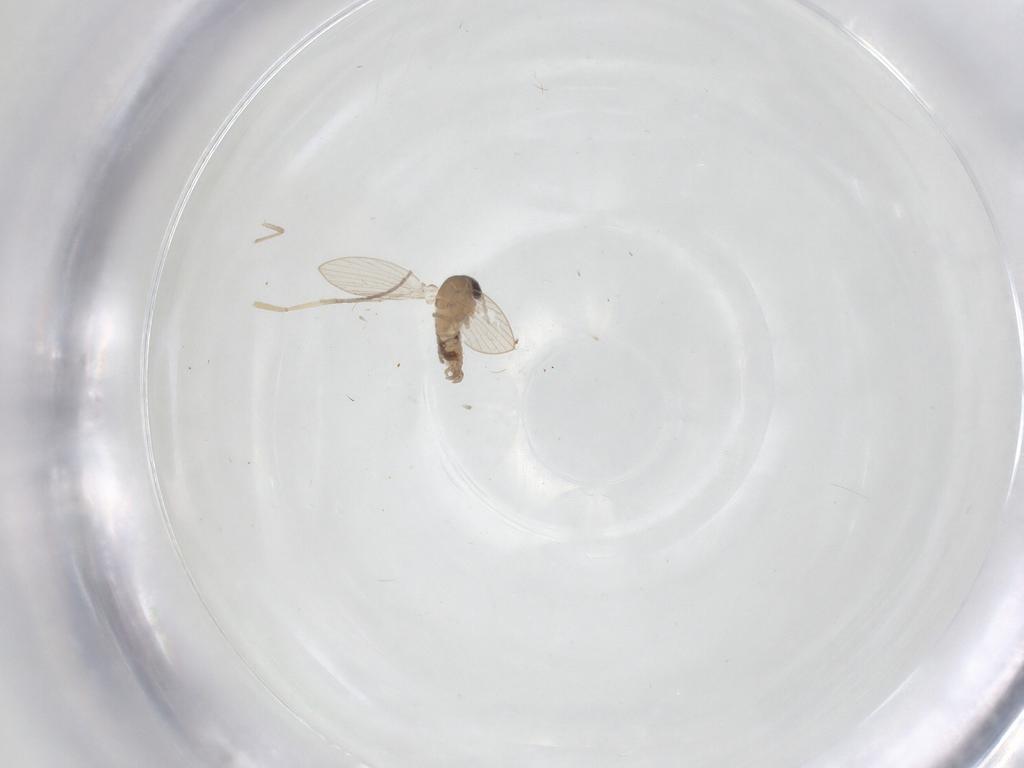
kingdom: Animalia
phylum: Arthropoda
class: Insecta
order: Diptera
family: Psychodidae
